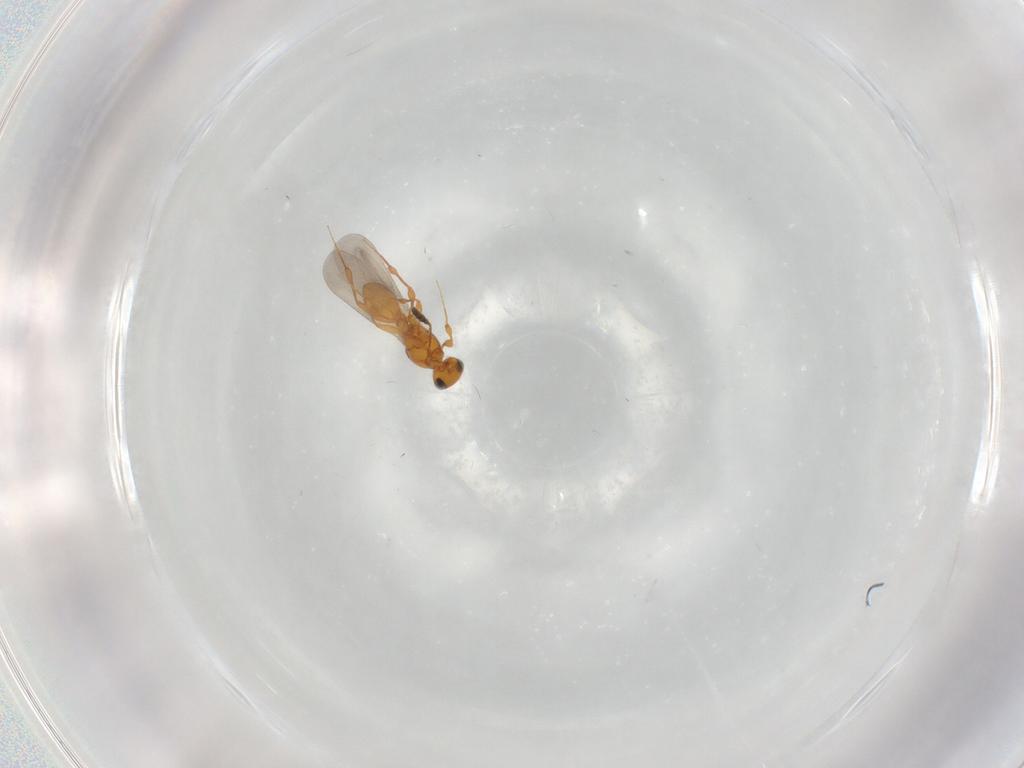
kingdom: Animalia
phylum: Arthropoda
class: Insecta
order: Hymenoptera
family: Platygastridae
